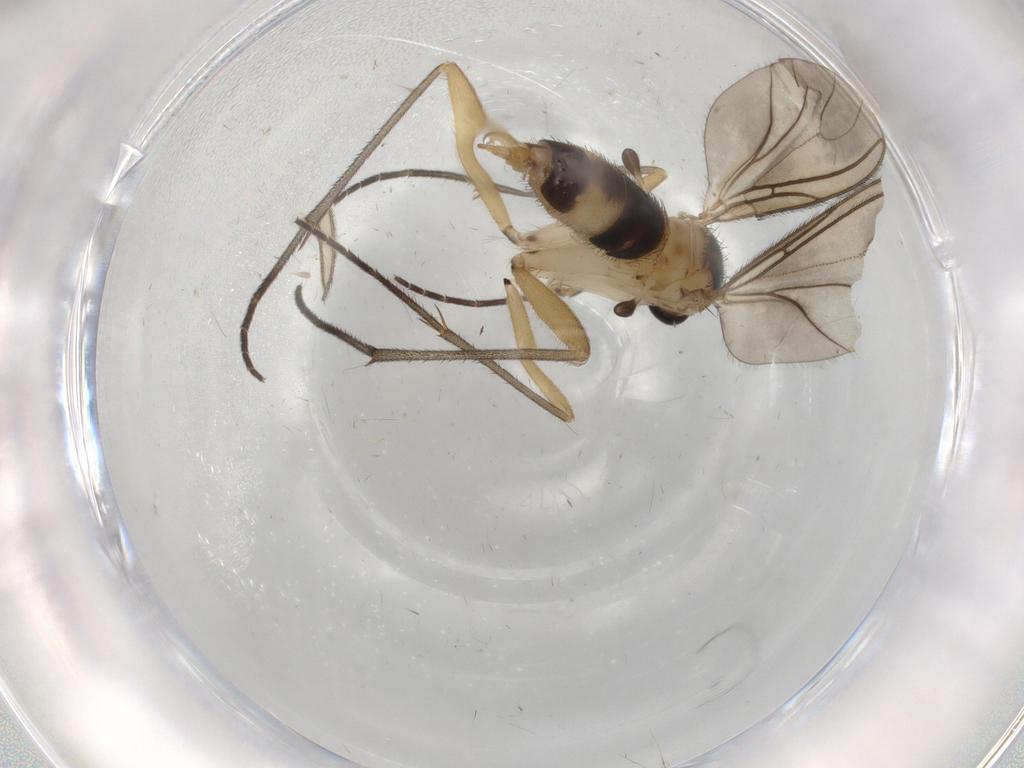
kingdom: Animalia
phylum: Arthropoda
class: Insecta
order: Diptera
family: Sciaridae
